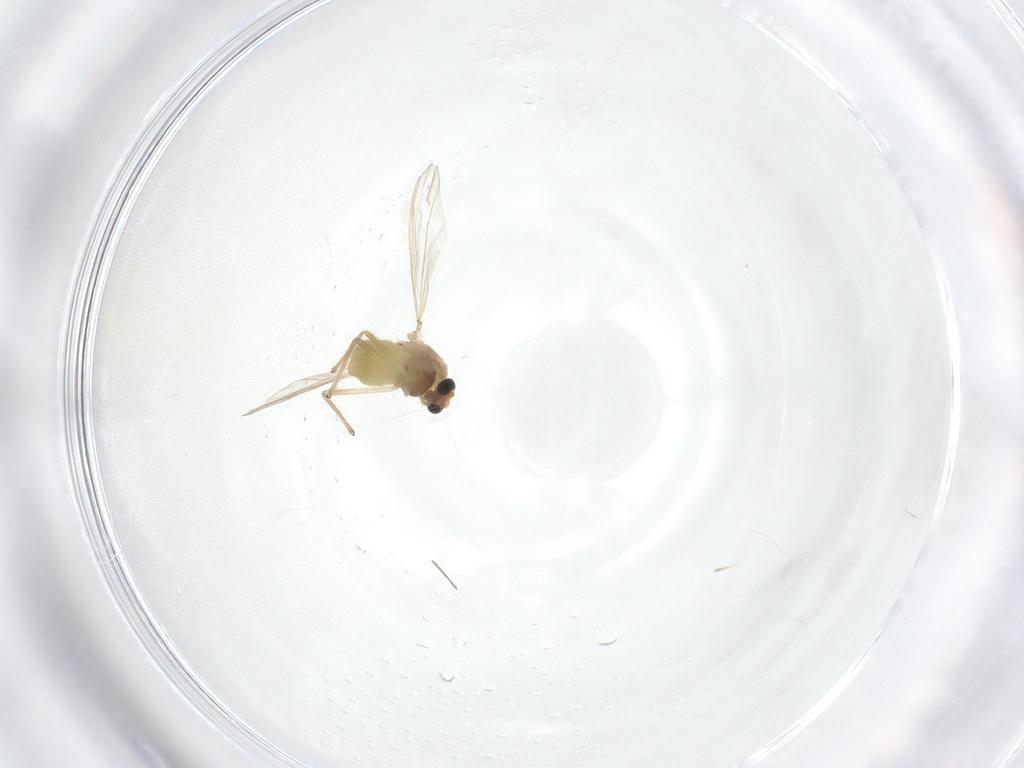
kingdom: Animalia
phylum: Arthropoda
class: Insecta
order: Diptera
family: Chironomidae
